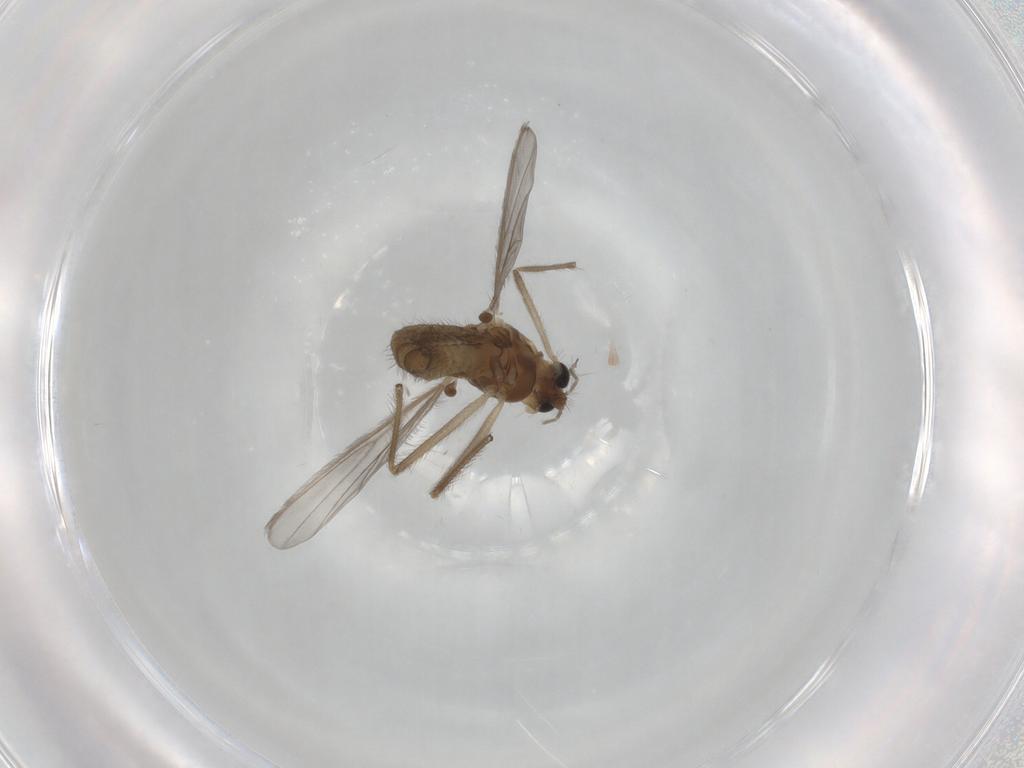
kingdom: Animalia
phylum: Arthropoda
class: Insecta
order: Diptera
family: Chironomidae
